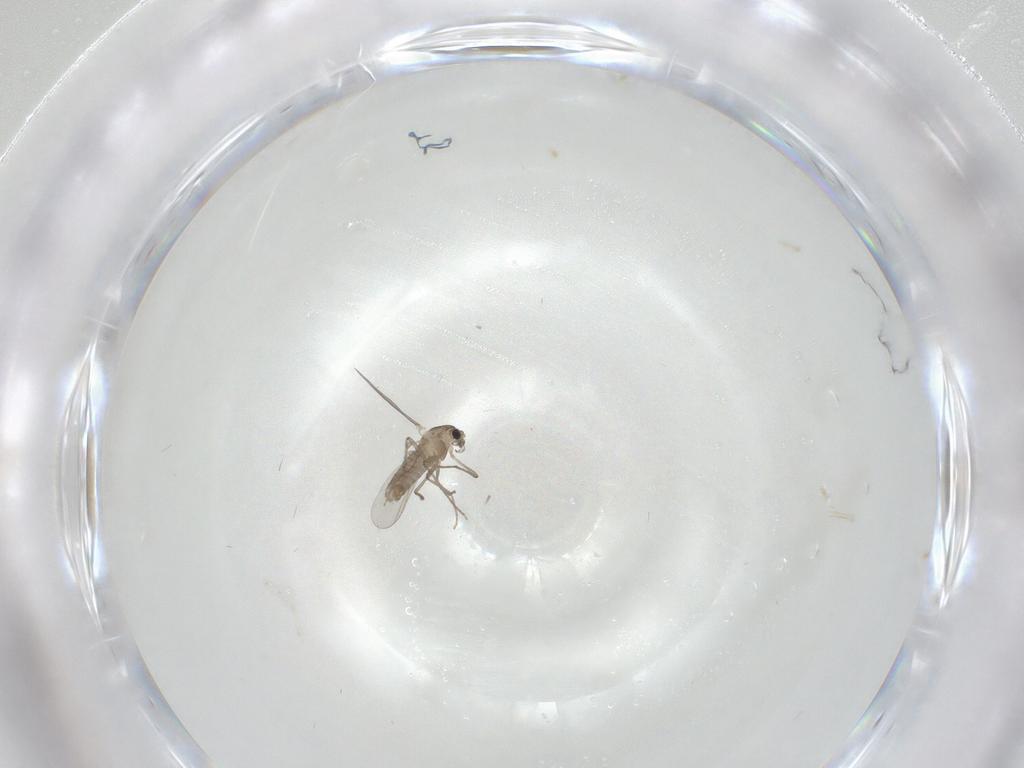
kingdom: Animalia
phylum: Arthropoda
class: Insecta
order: Diptera
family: Chironomidae
